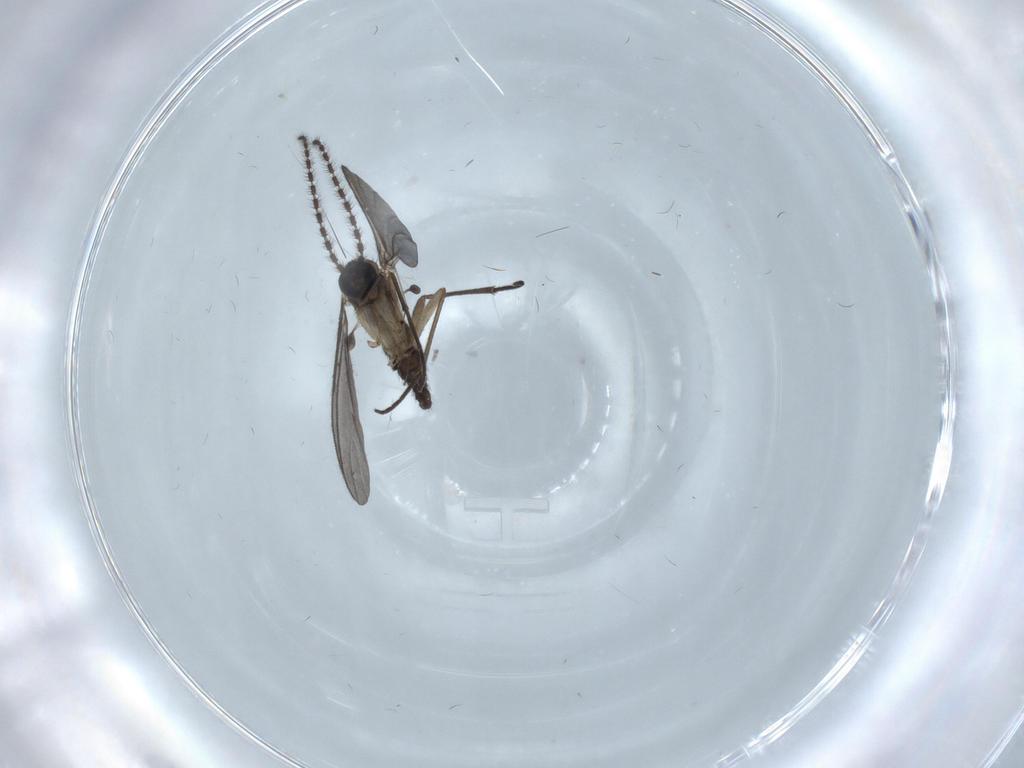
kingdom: Animalia
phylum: Arthropoda
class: Insecta
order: Diptera
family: Sciaridae
